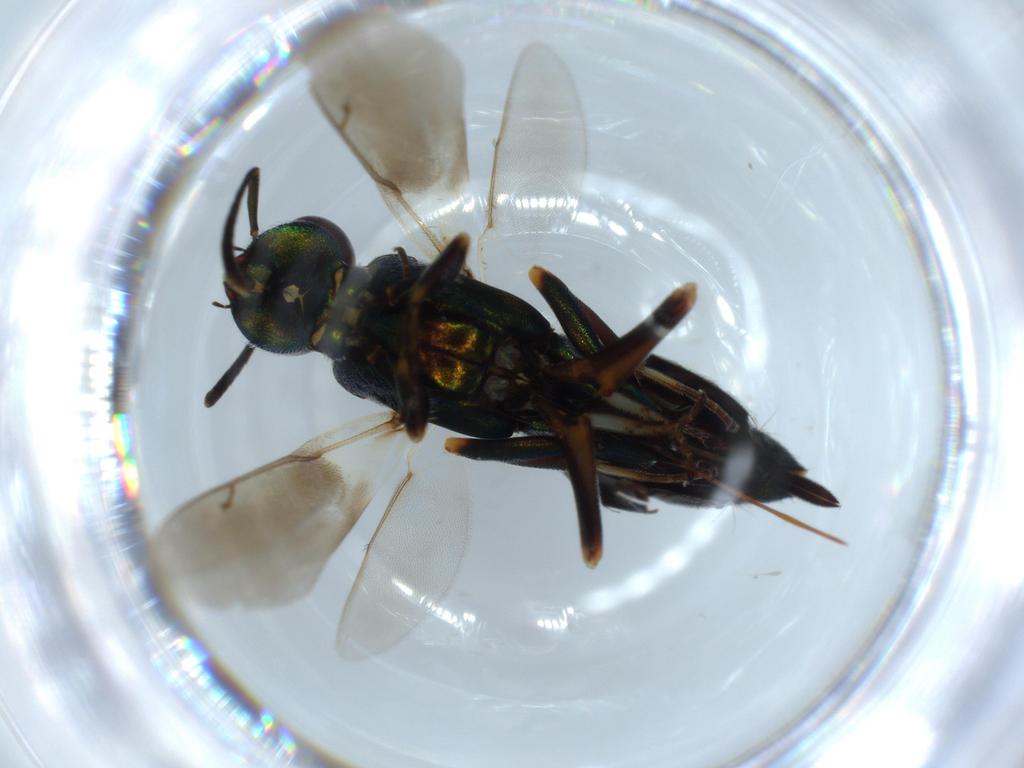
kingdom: Animalia
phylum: Arthropoda
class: Insecta
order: Hymenoptera
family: Eupelmidae
